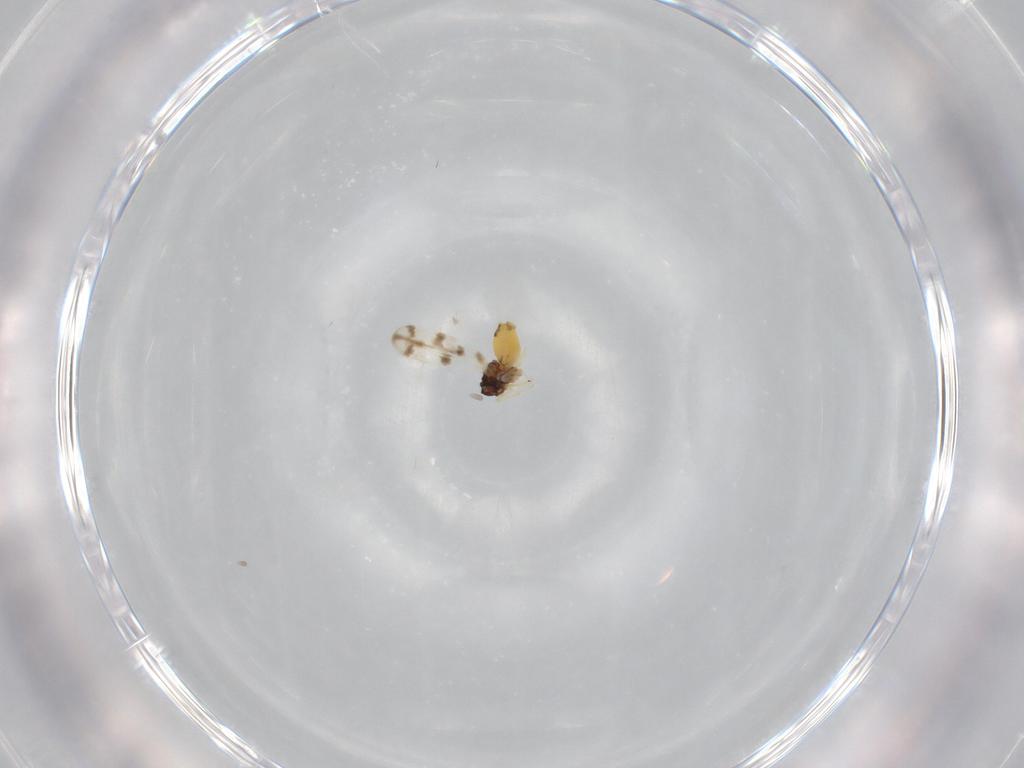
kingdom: Animalia
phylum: Arthropoda
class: Insecta
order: Hemiptera
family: Aleyrodidae
